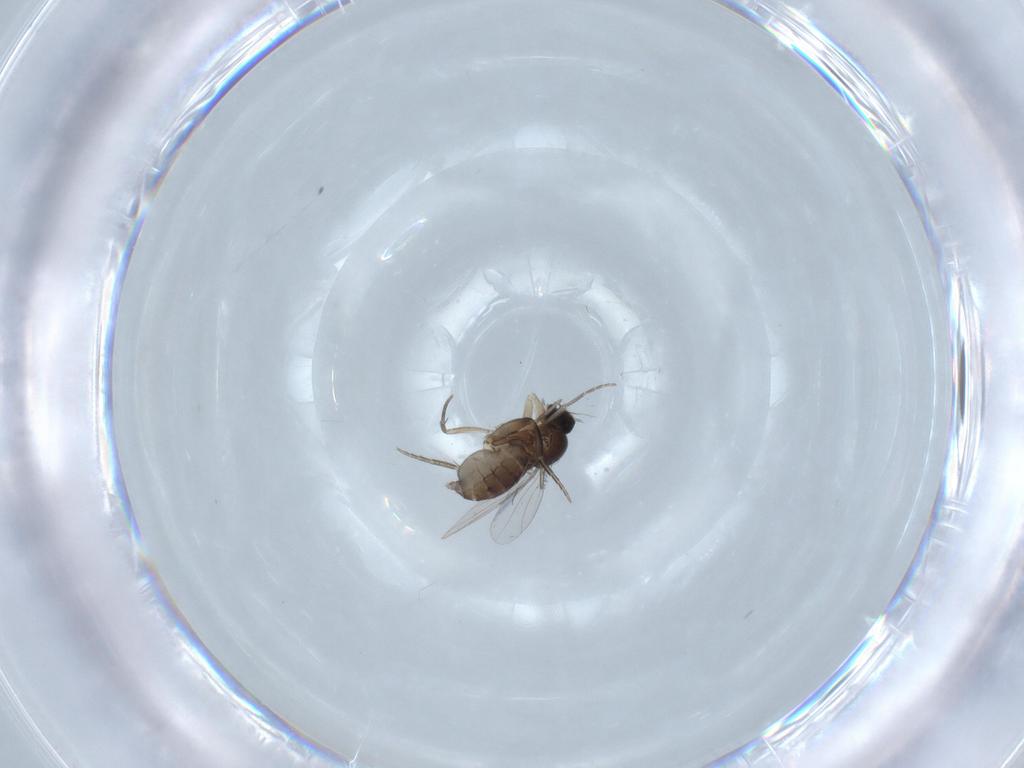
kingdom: Animalia
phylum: Arthropoda
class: Insecta
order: Diptera
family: Phoridae
